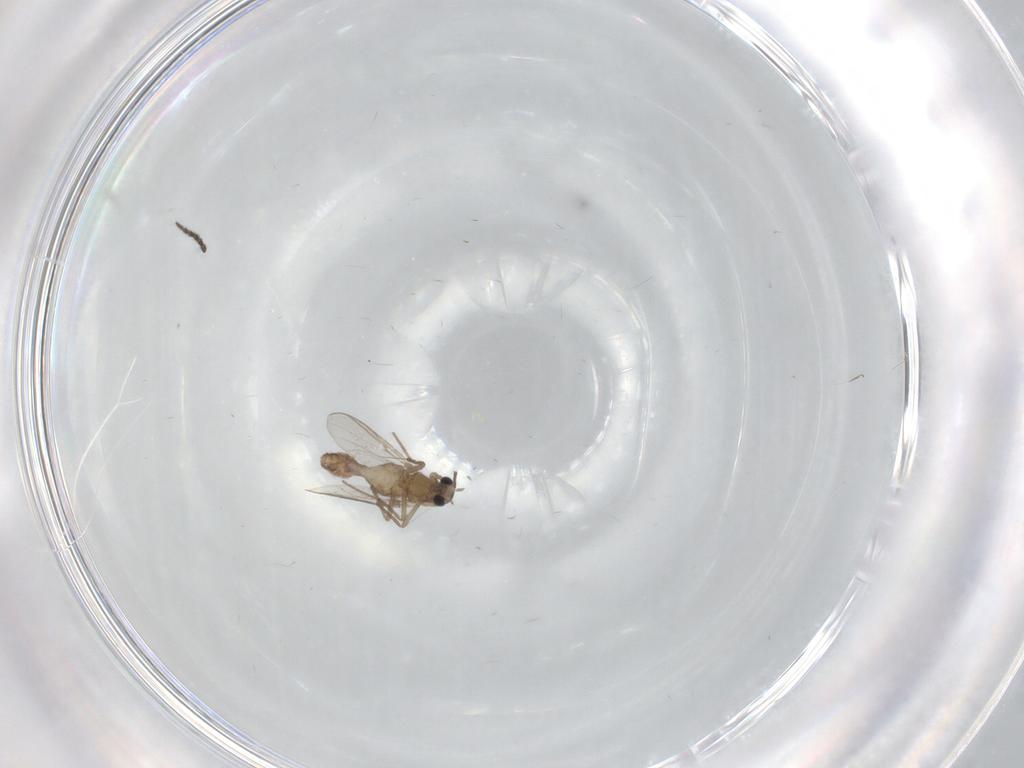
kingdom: Animalia
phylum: Arthropoda
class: Insecta
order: Diptera
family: Sciaridae
